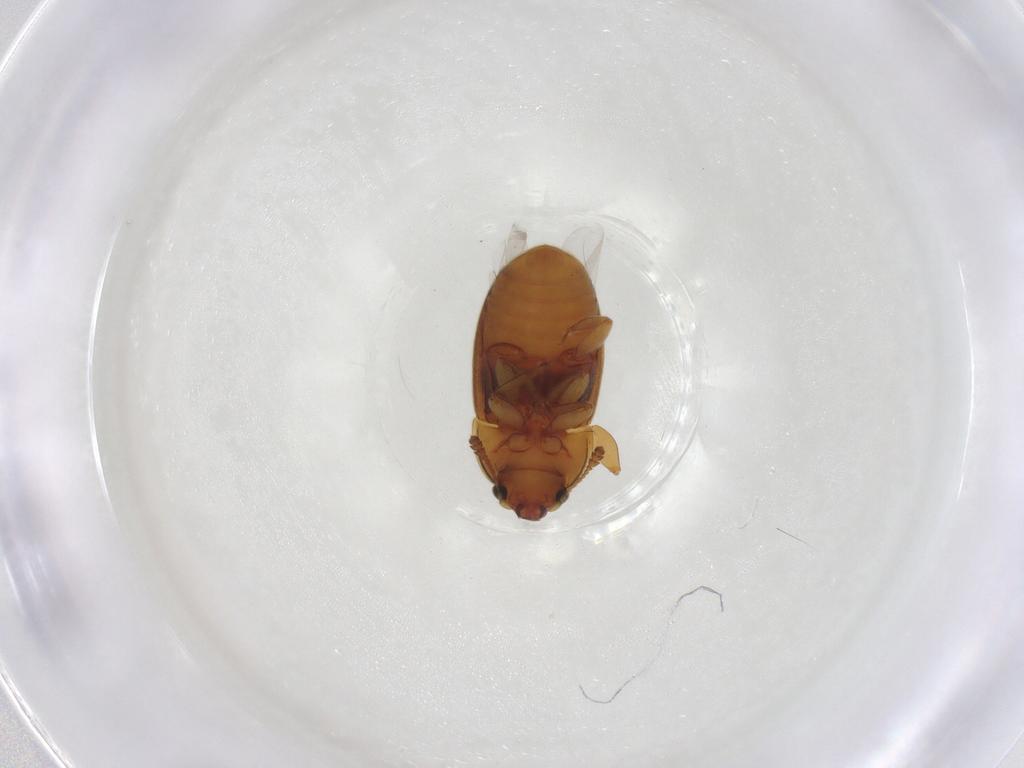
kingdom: Animalia
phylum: Arthropoda
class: Insecta
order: Coleoptera
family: Nitidulidae
